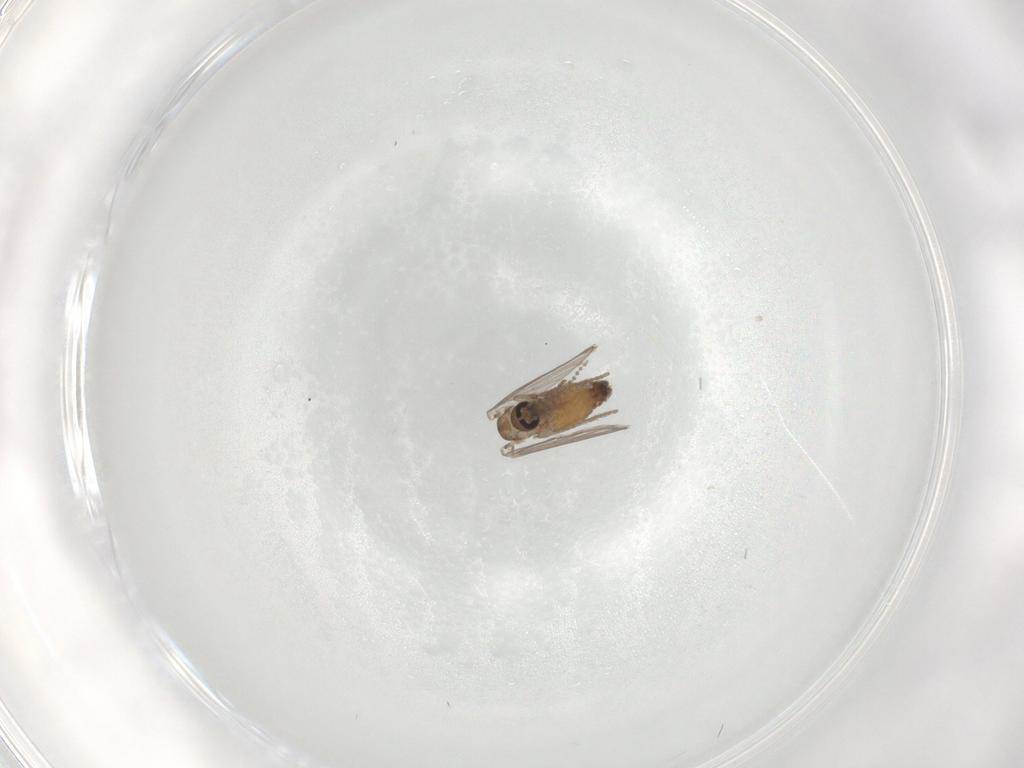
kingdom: Animalia
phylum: Arthropoda
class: Insecta
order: Diptera
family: Psychodidae
